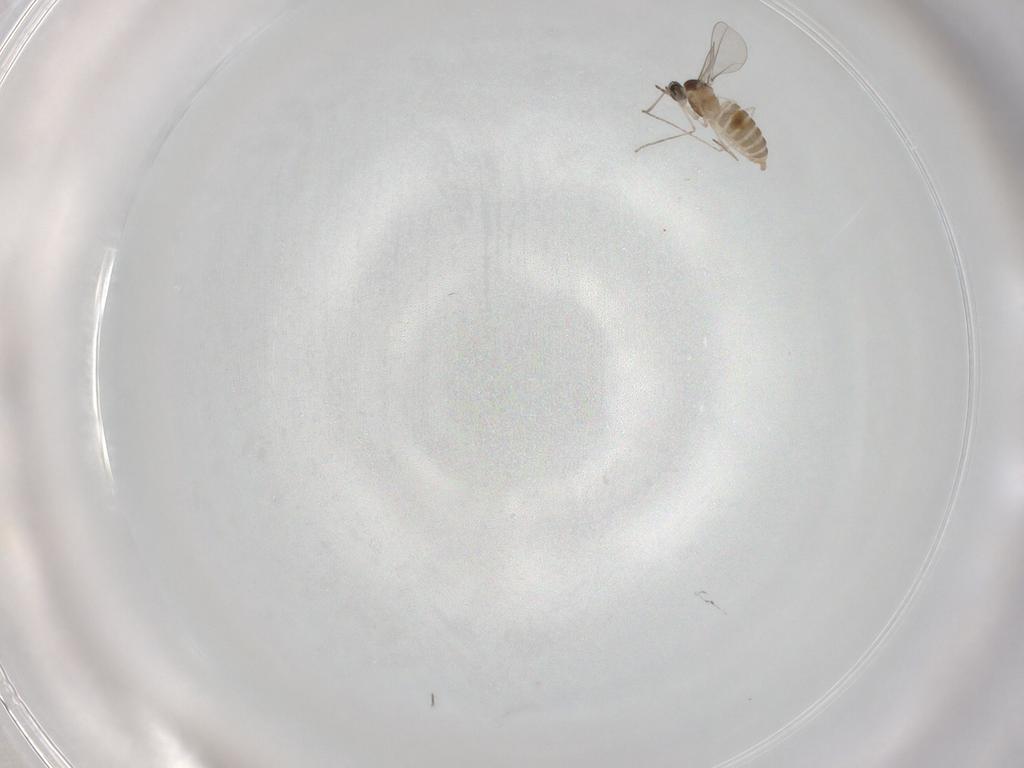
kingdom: Animalia
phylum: Arthropoda
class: Insecta
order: Diptera
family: Cecidomyiidae
